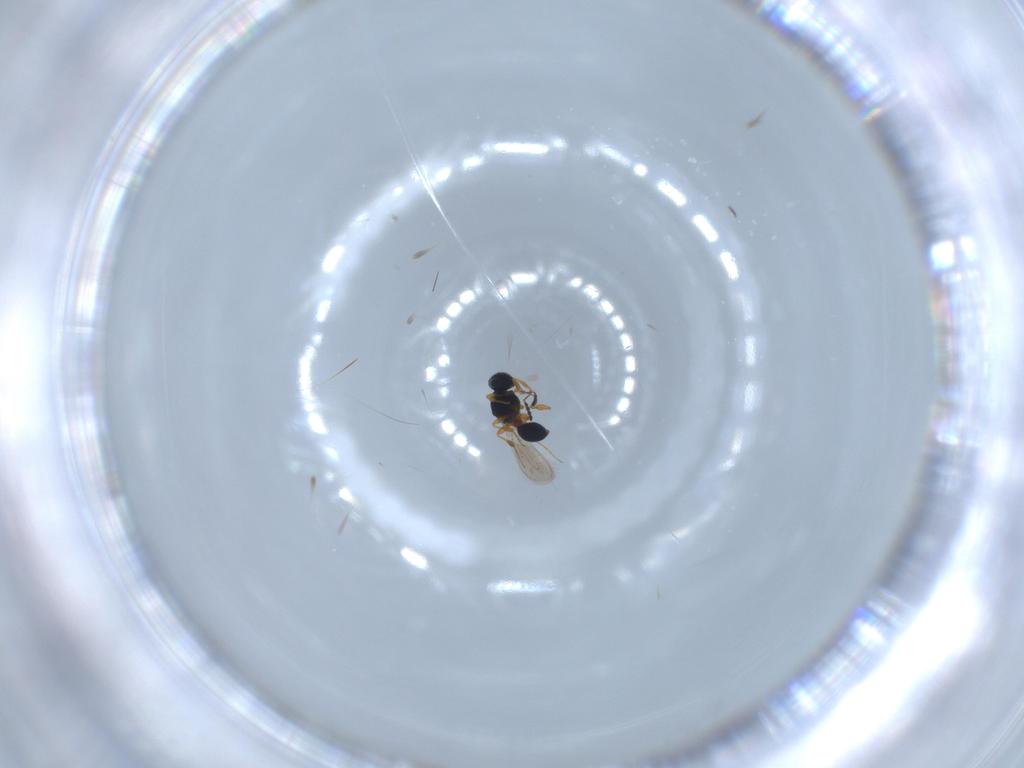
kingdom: Animalia
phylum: Arthropoda
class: Insecta
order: Hymenoptera
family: Platygastridae
